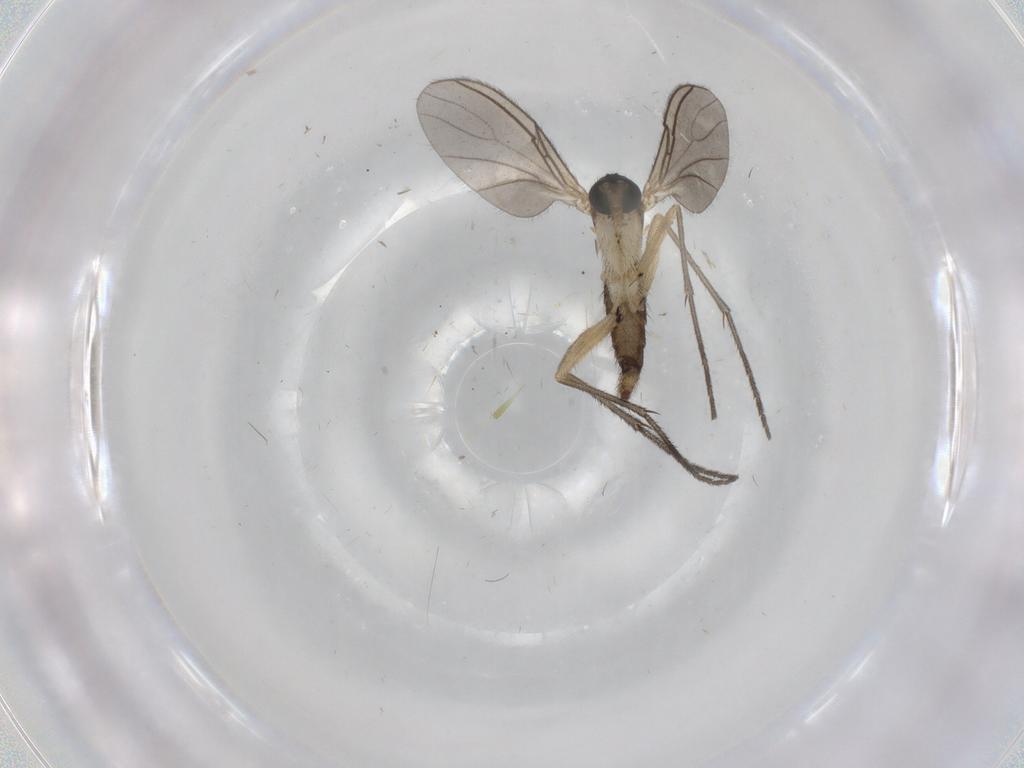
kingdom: Animalia
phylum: Arthropoda
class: Insecta
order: Diptera
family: Sciaridae
